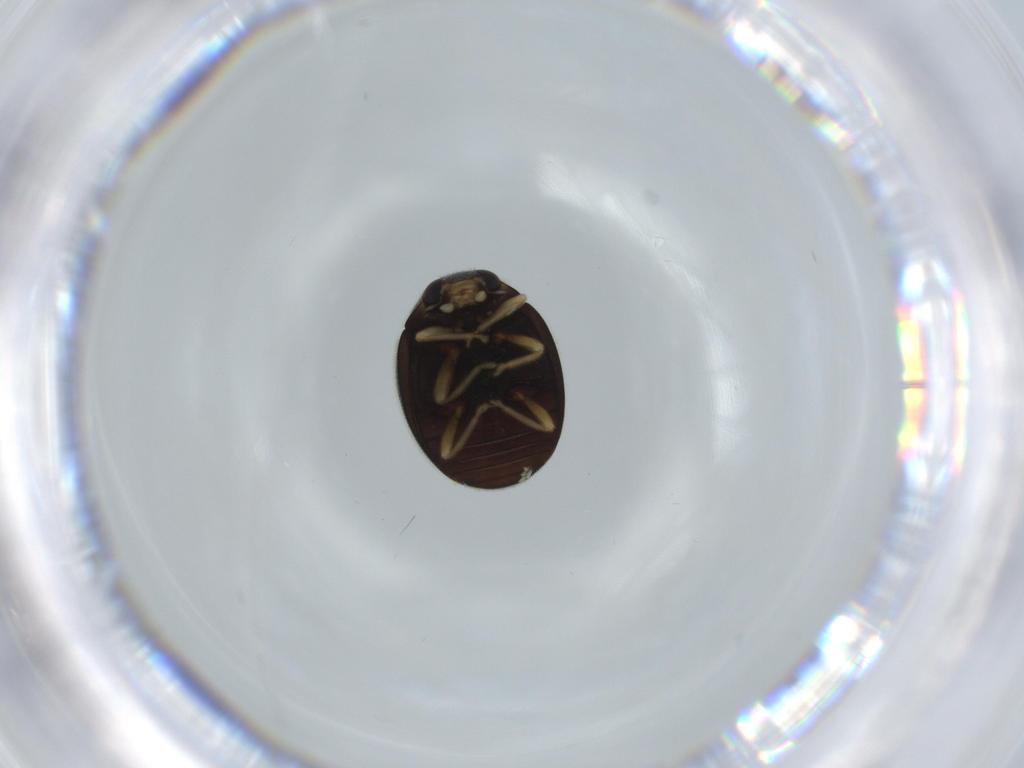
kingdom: Animalia
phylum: Arthropoda
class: Insecta
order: Coleoptera
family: Coccinellidae
